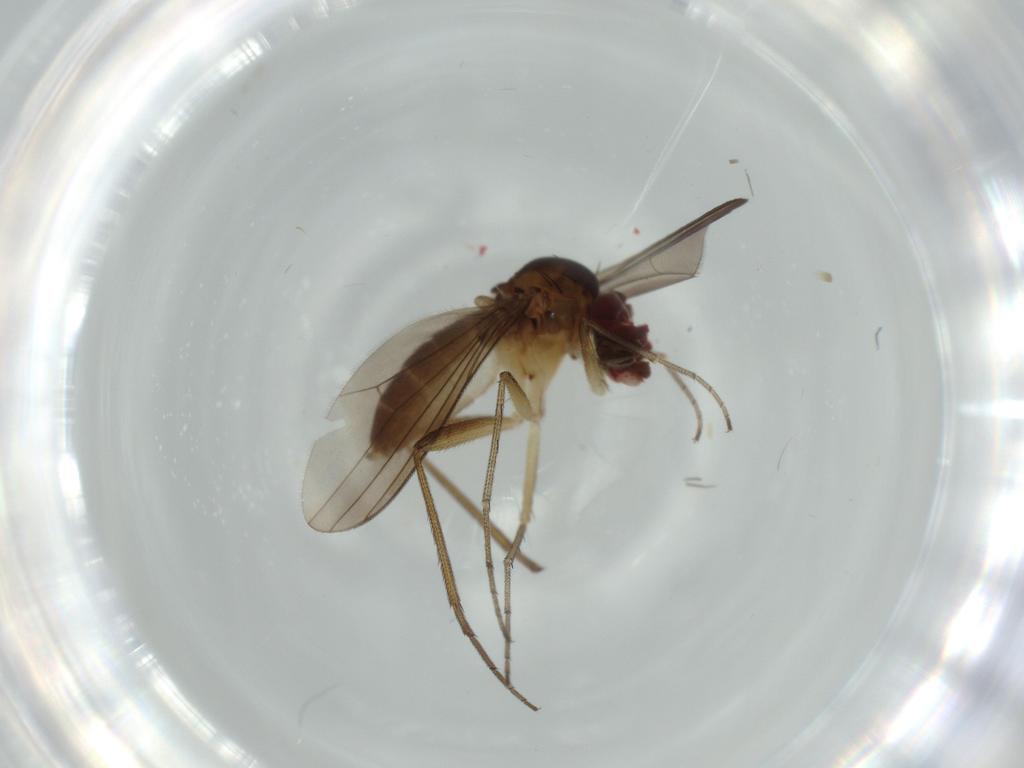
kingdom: Animalia
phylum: Arthropoda
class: Insecta
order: Diptera
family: Dolichopodidae
